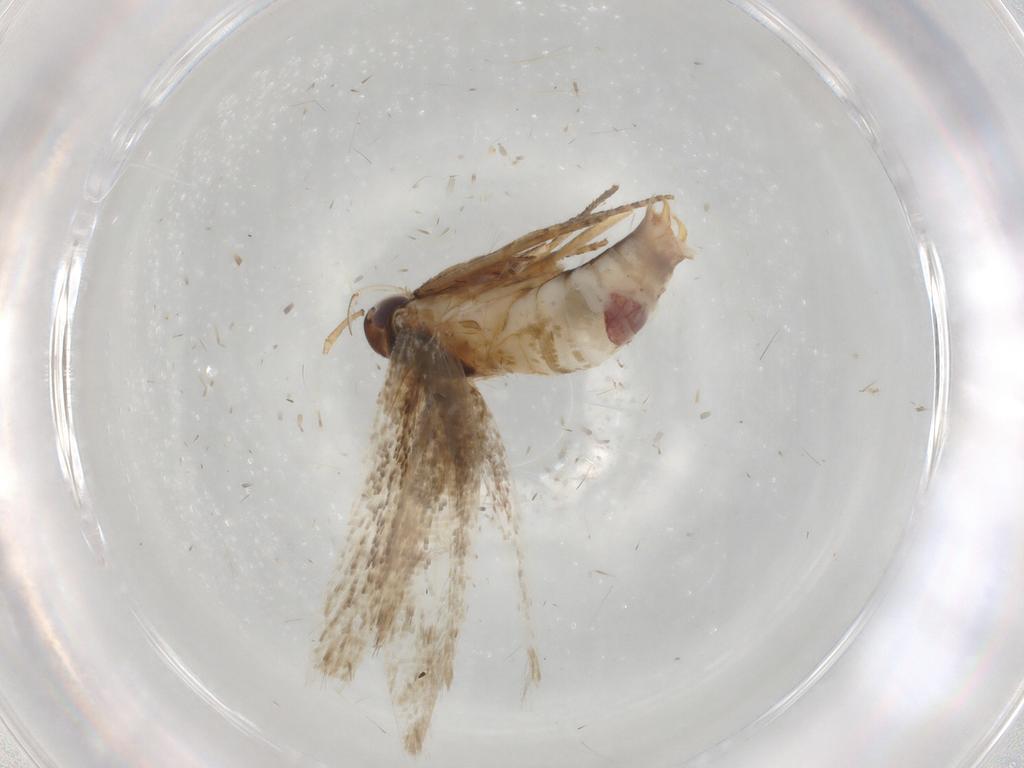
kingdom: Animalia
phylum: Arthropoda
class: Insecta
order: Lepidoptera
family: Cosmopterigidae
